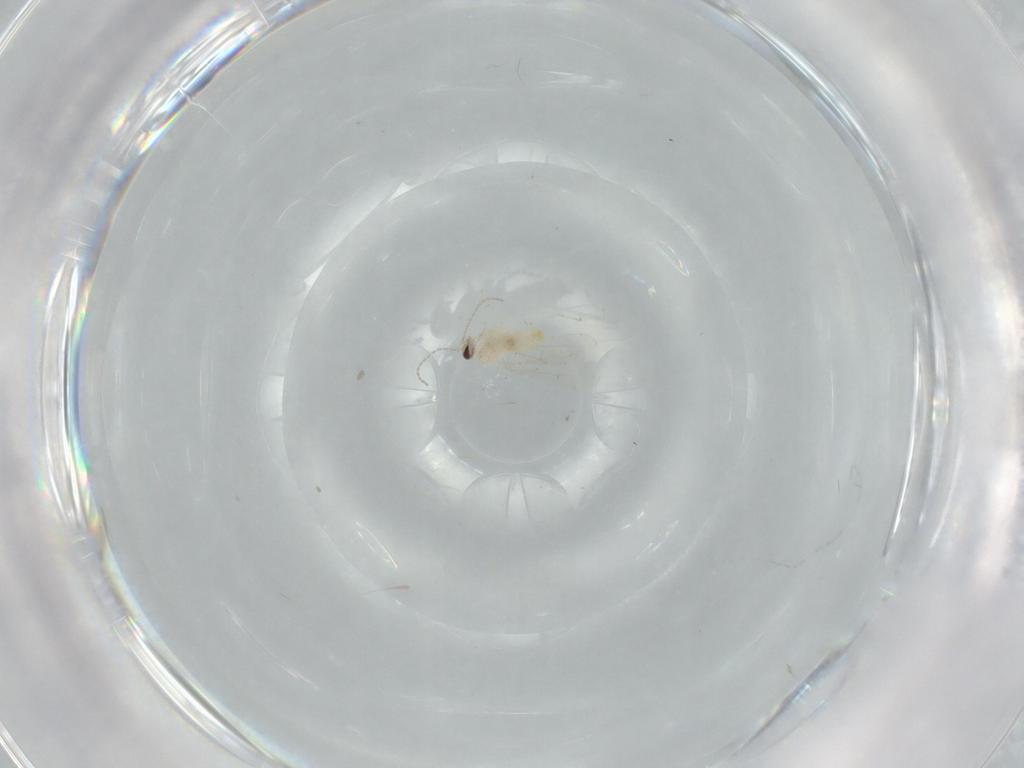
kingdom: Animalia
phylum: Arthropoda
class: Insecta
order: Diptera
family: Cecidomyiidae
